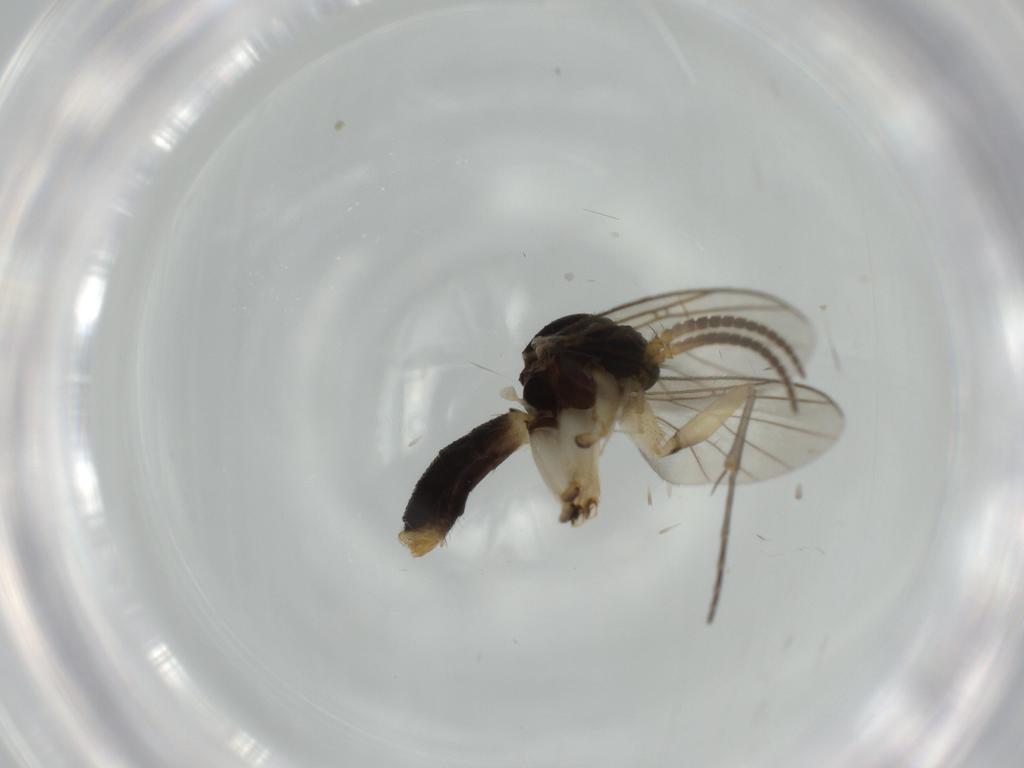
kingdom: Animalia
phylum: Arthropoda
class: Insecta
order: Diptera
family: Mycetophilidae
